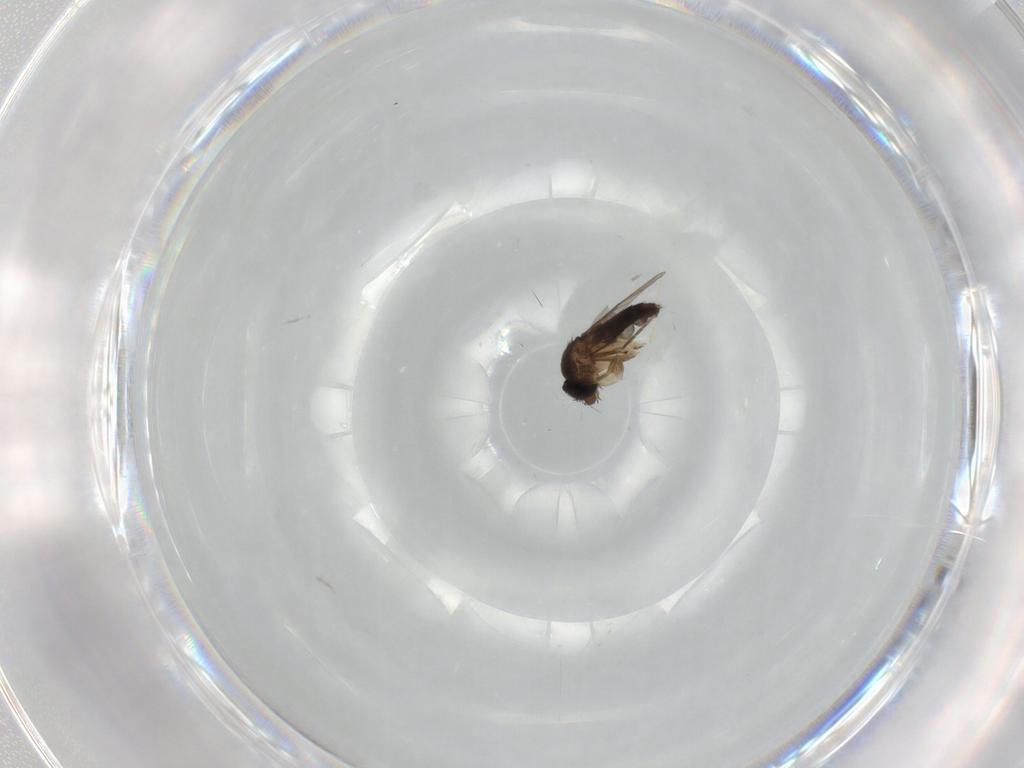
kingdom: Animalia
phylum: Arthropoda
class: Insecta
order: Diptera
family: Phoridae
